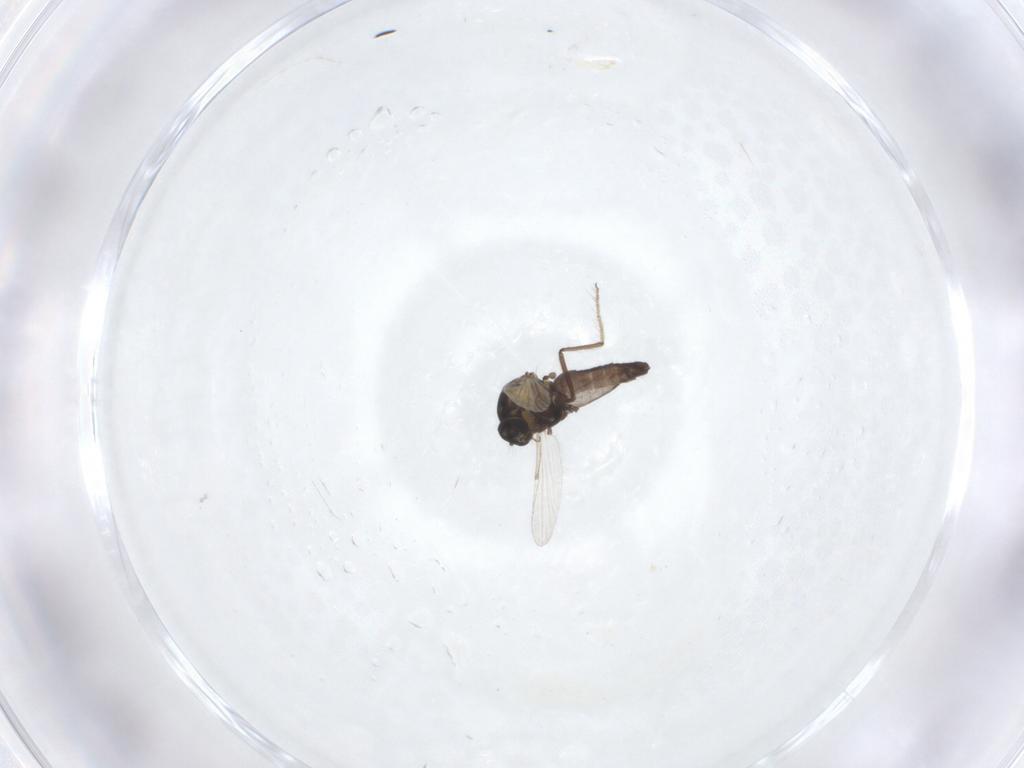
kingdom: Animalia
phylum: Arthropoda
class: Insecta
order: Diptera
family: Ceratopogonidae
